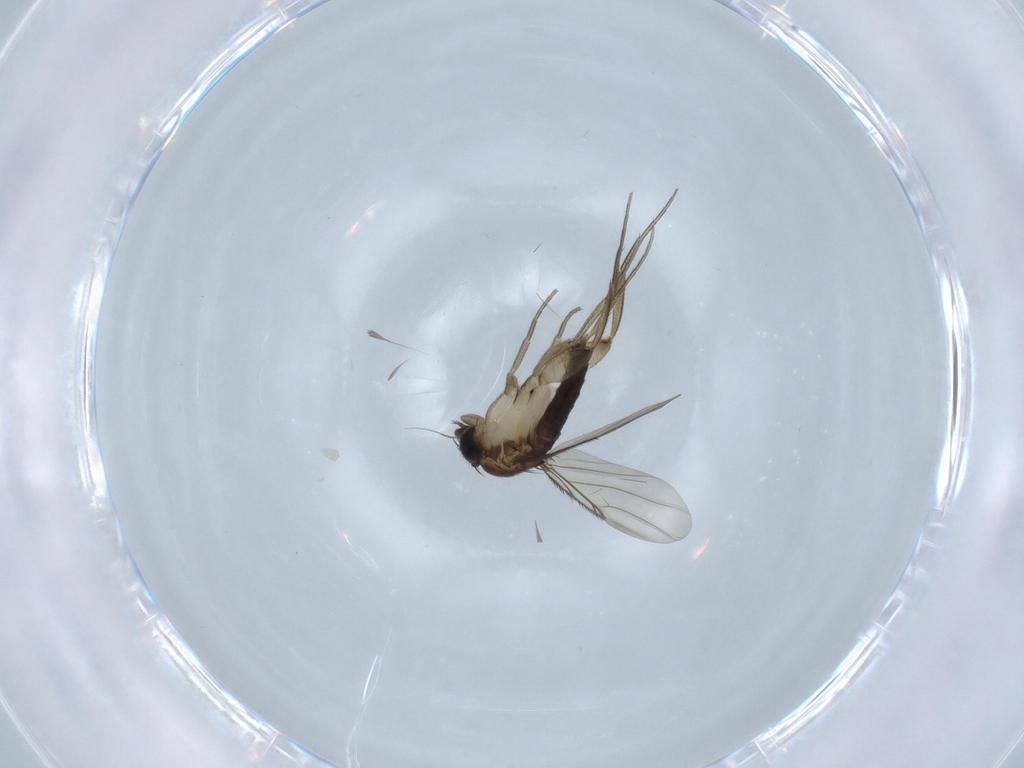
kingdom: Animalia
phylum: Arthropoda
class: Insecta
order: Diptera
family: Phoridae
